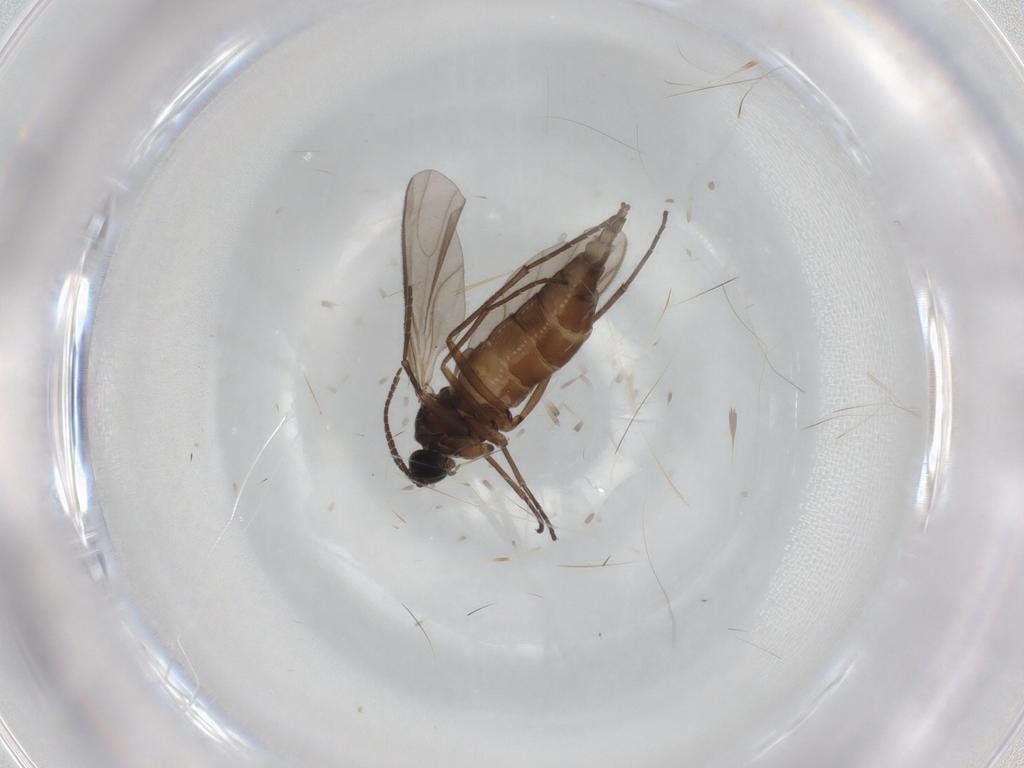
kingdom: Animalia
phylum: Arthropoda
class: Insecta
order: Diptera
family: Sciaridae
